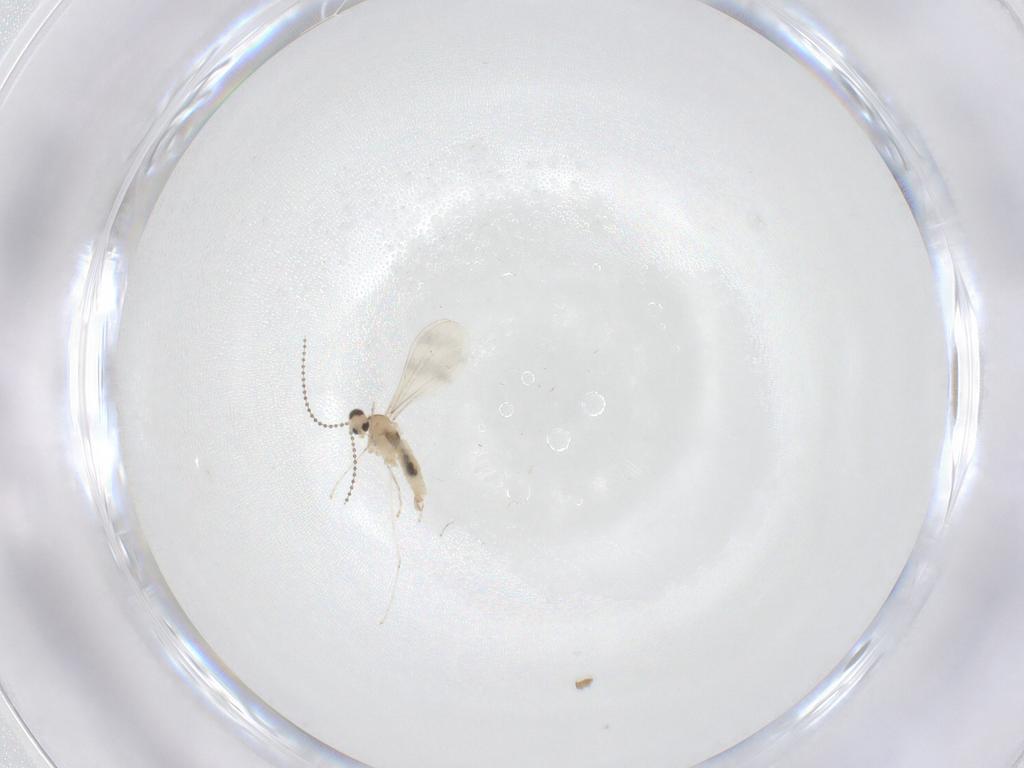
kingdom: Animalia
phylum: Arthropoda
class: Insecta
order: Diptera
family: Cecidomyiidae
